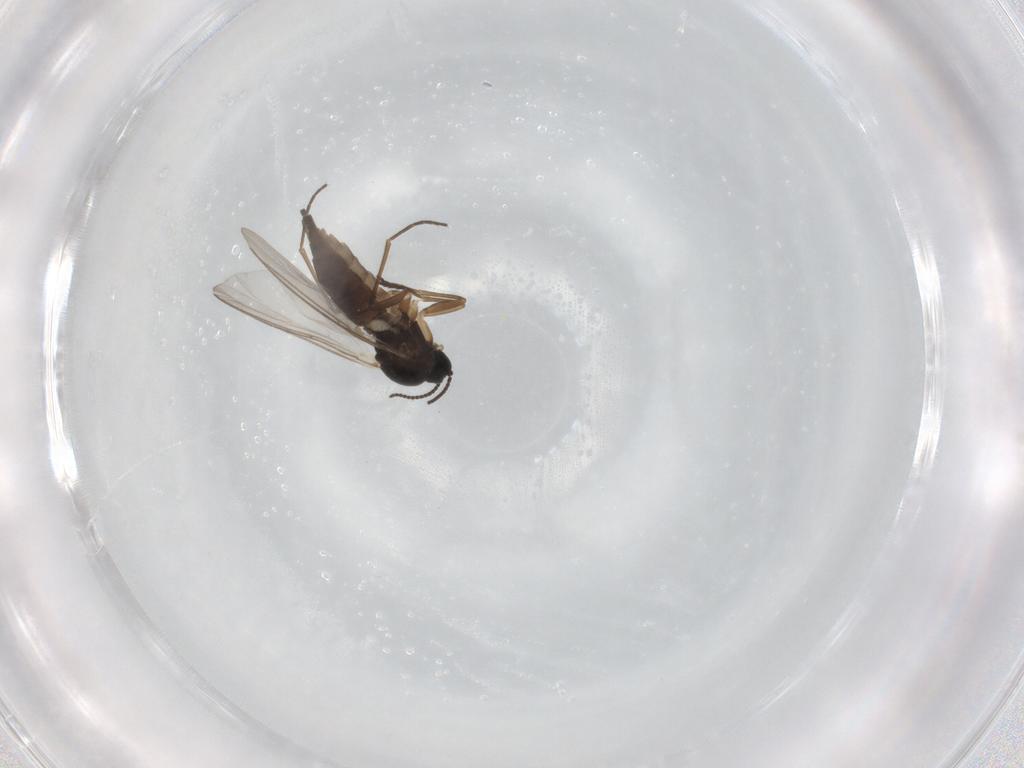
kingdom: Animalia
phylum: Arthropoda
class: Insecta
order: Diptera
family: Sciaridae
